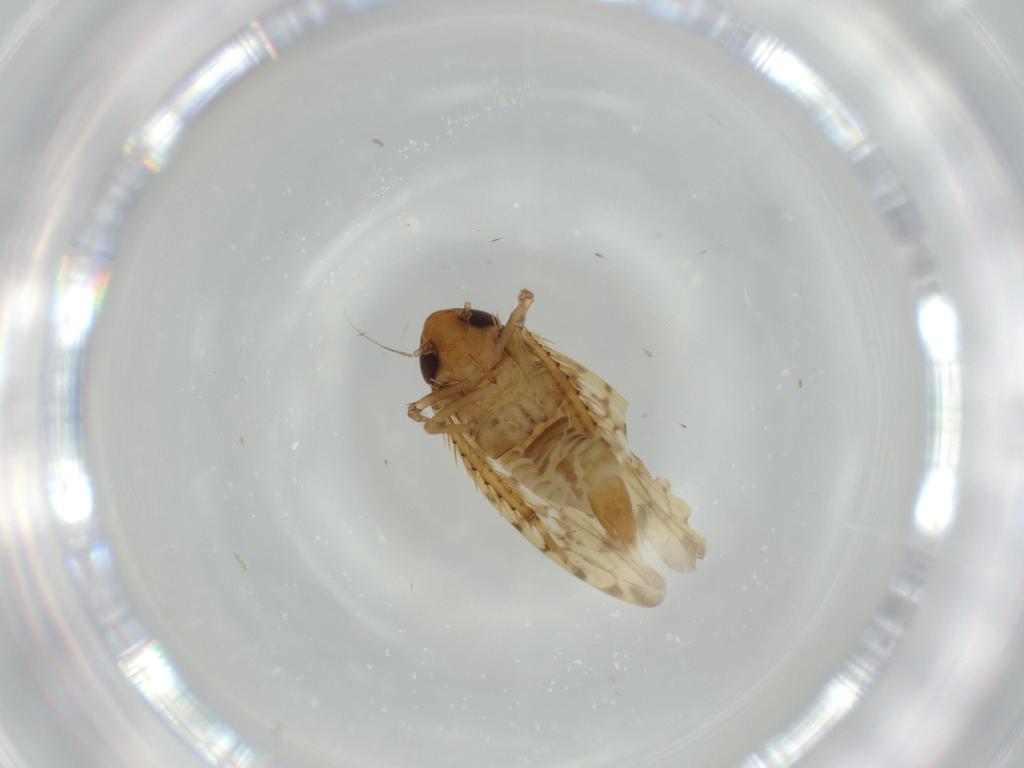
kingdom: Animalia
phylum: Arthropoda
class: Insecta
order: Hemiptera
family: Cicadellidae
